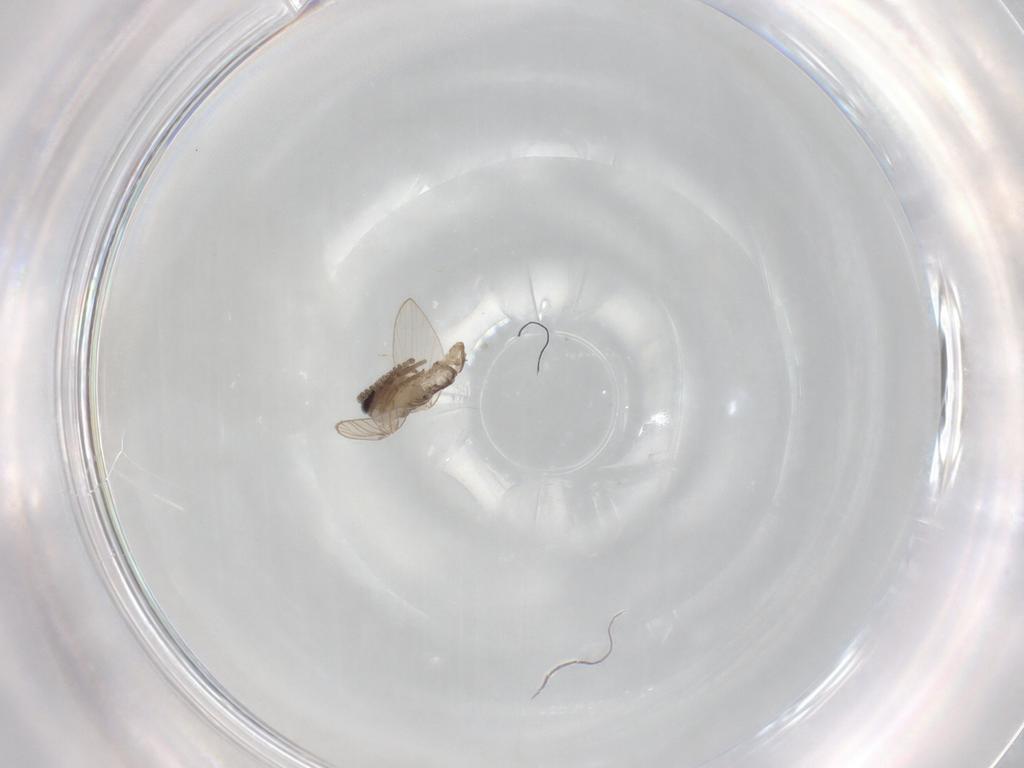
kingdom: Animalia
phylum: Arthropoda
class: Insecta
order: Diptera
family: Psychodidae
